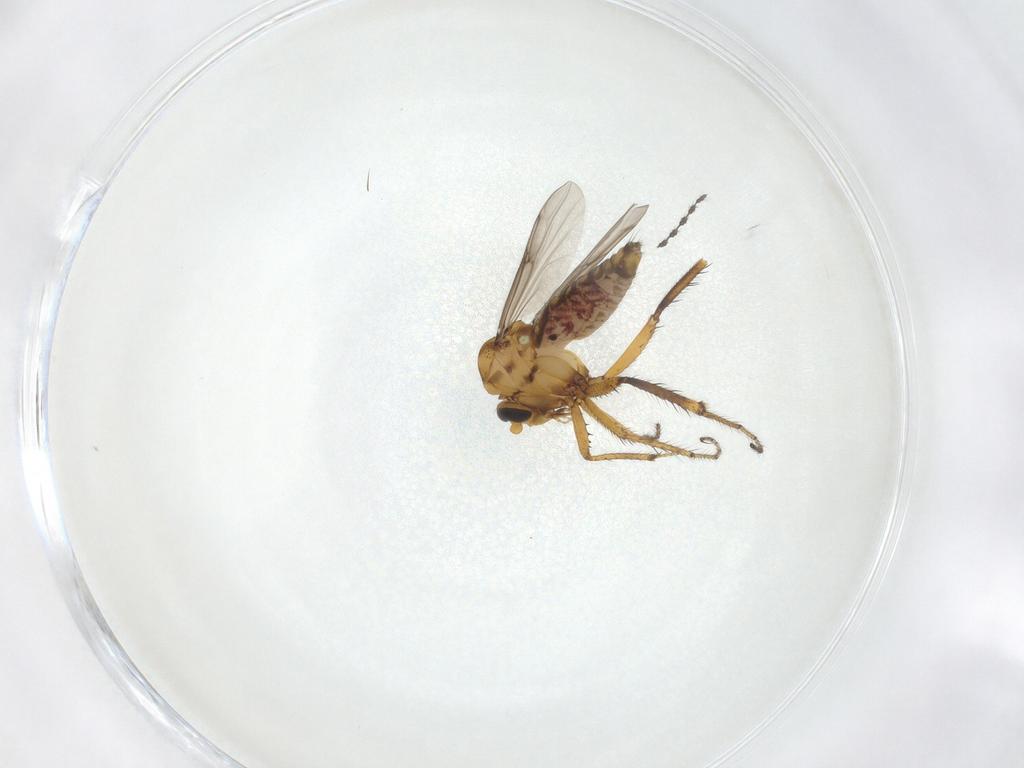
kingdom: Animalia
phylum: Arthropoda
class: Insecta
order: Diptera
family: Ceratopogonidae
